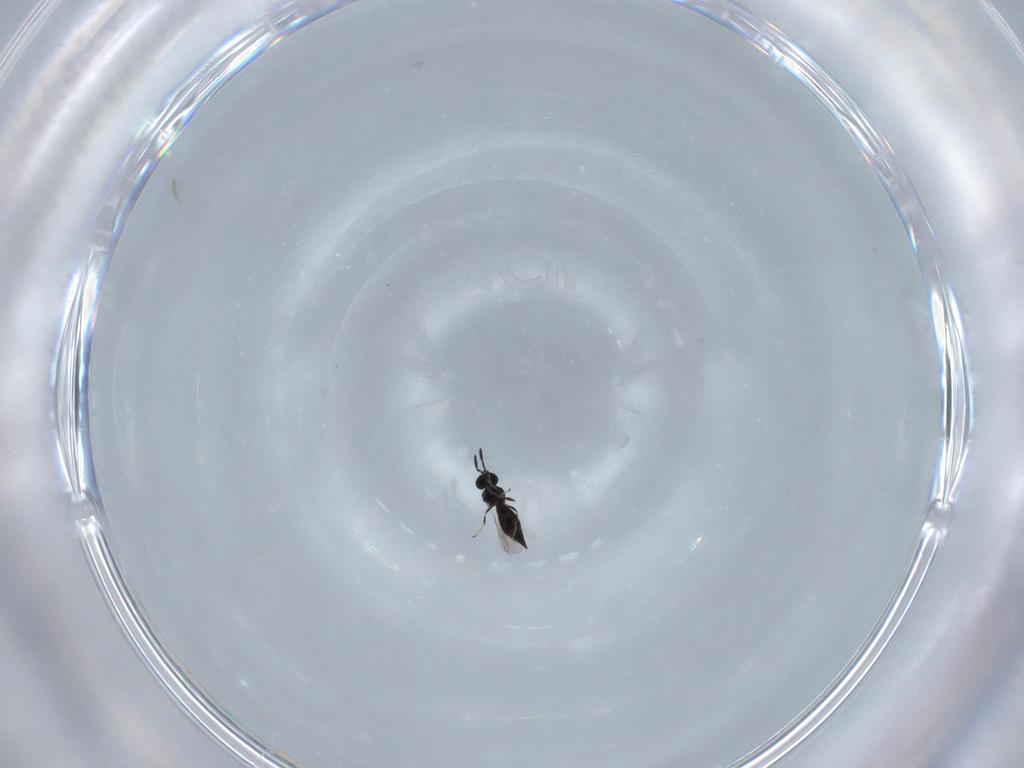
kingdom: Animalia
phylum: Arthropoda
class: Insecta
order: Hymenoptera
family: Scelionidae
